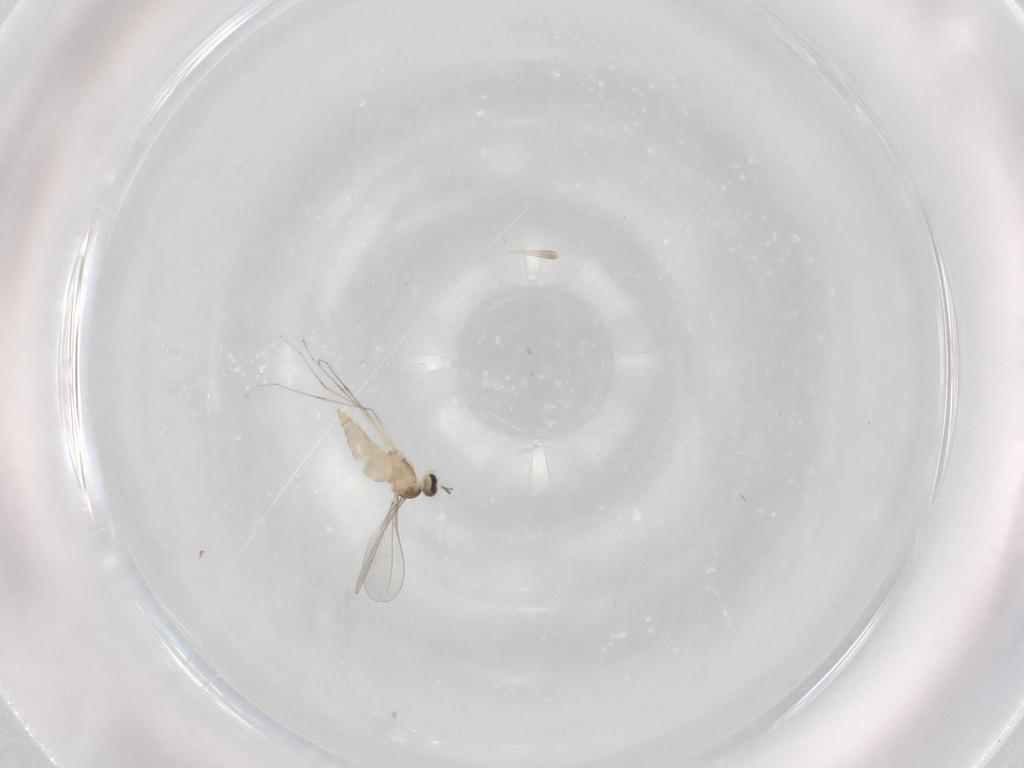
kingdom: Animalia
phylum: Arthropoda
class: Insecta
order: Diptera
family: Cecidomyiidae
